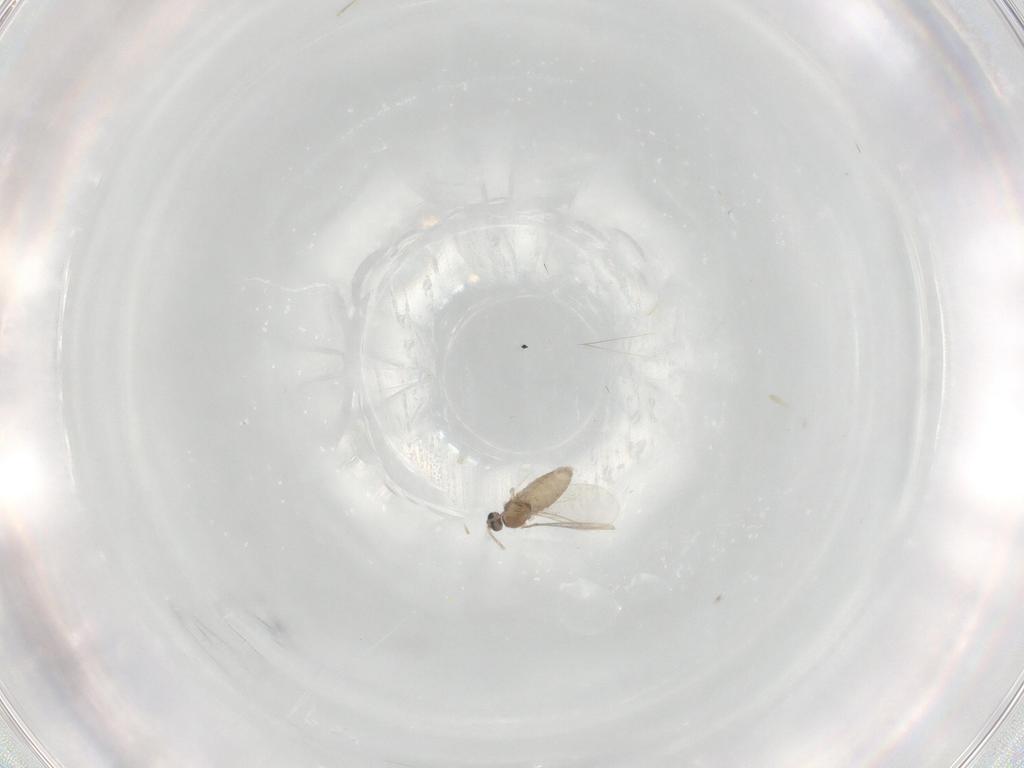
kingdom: Animalia
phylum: Arthropoda
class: Insecta
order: Diptera
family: Cecidomyiidae
